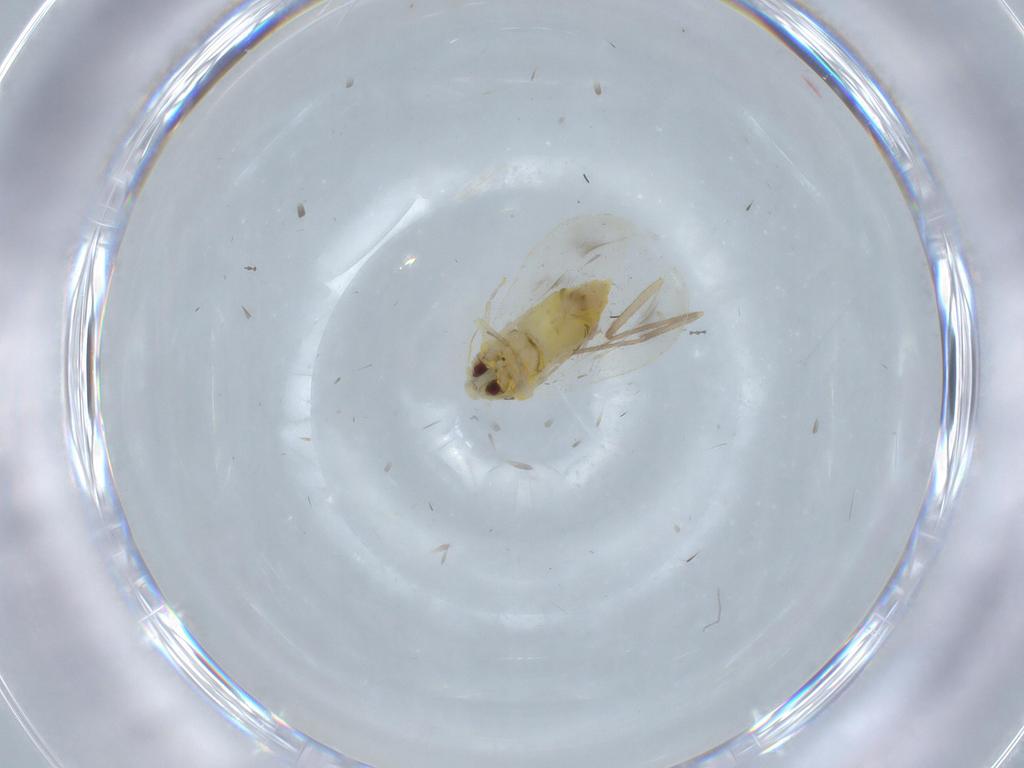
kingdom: Animalia
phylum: Arthropoda
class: Insecta
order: Hemiptera
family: Aleyrodidae
